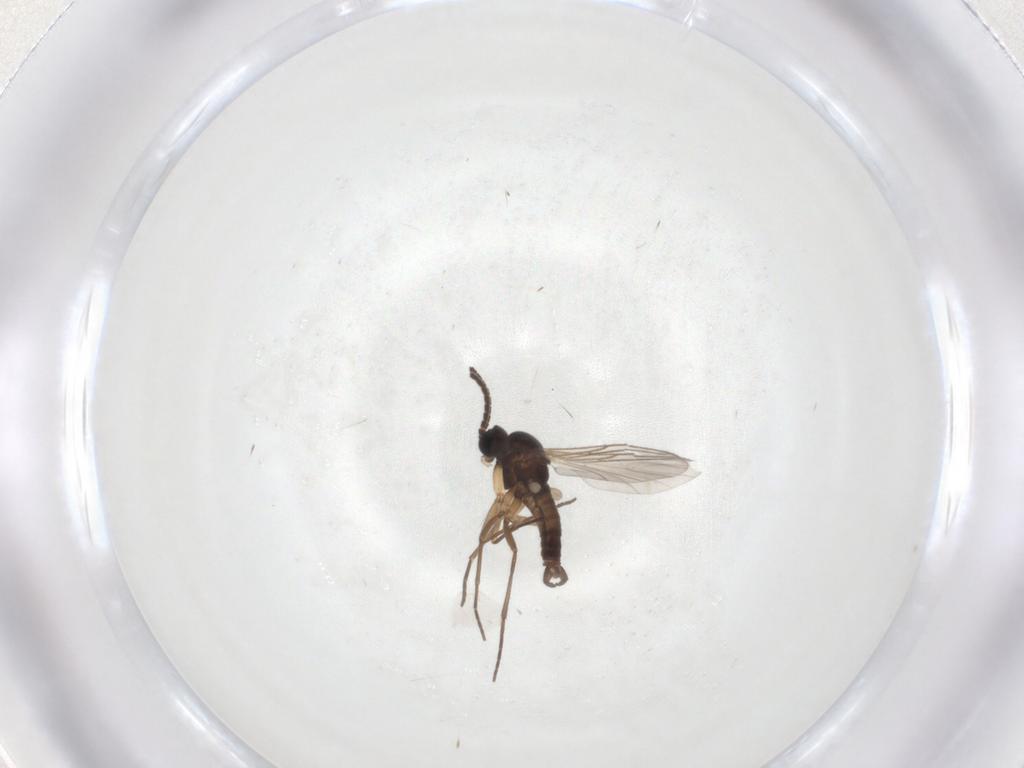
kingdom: Animalia
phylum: Arthropoda
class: Insecta
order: Diptera
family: Sciaridae
